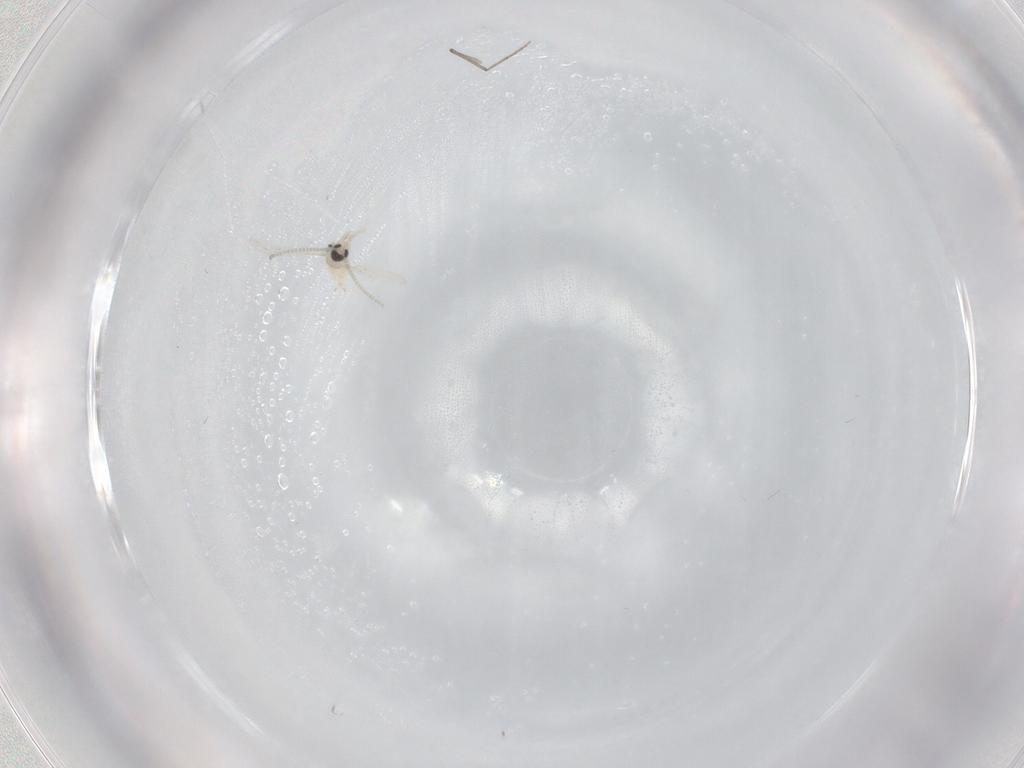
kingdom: Animalia
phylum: Arthropoda
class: Insecta
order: Diptera
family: Cecidomyiidae
